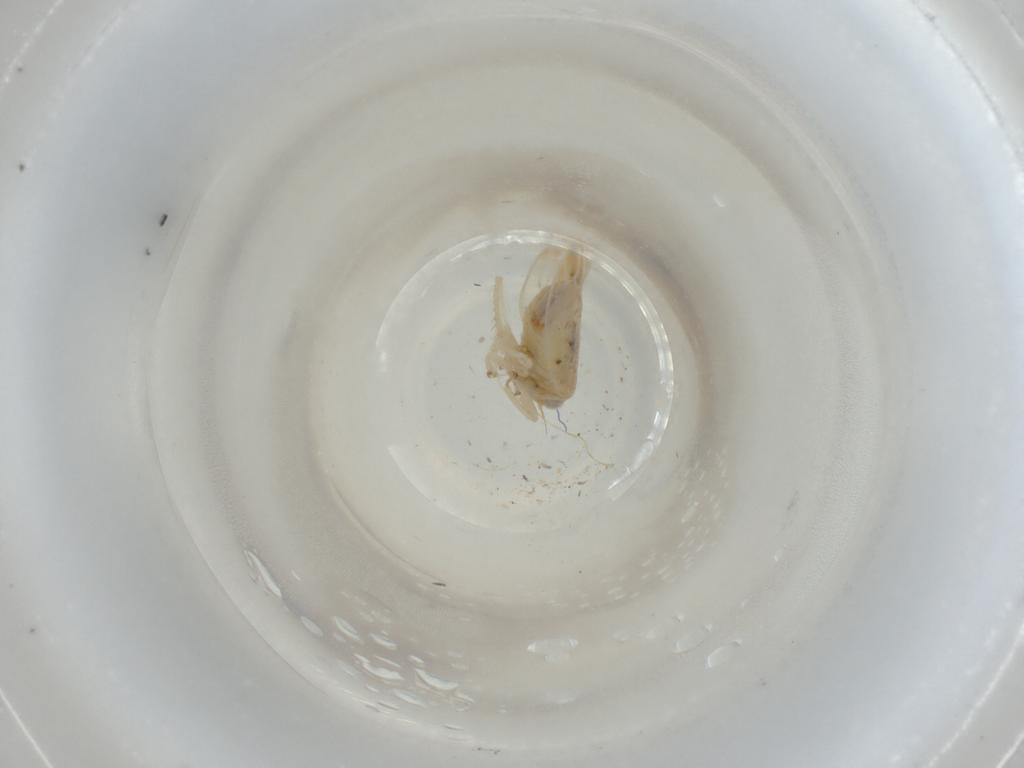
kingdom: Animalia
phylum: Arthropoda
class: Insecta
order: Hemiptera
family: Cicadellidae
